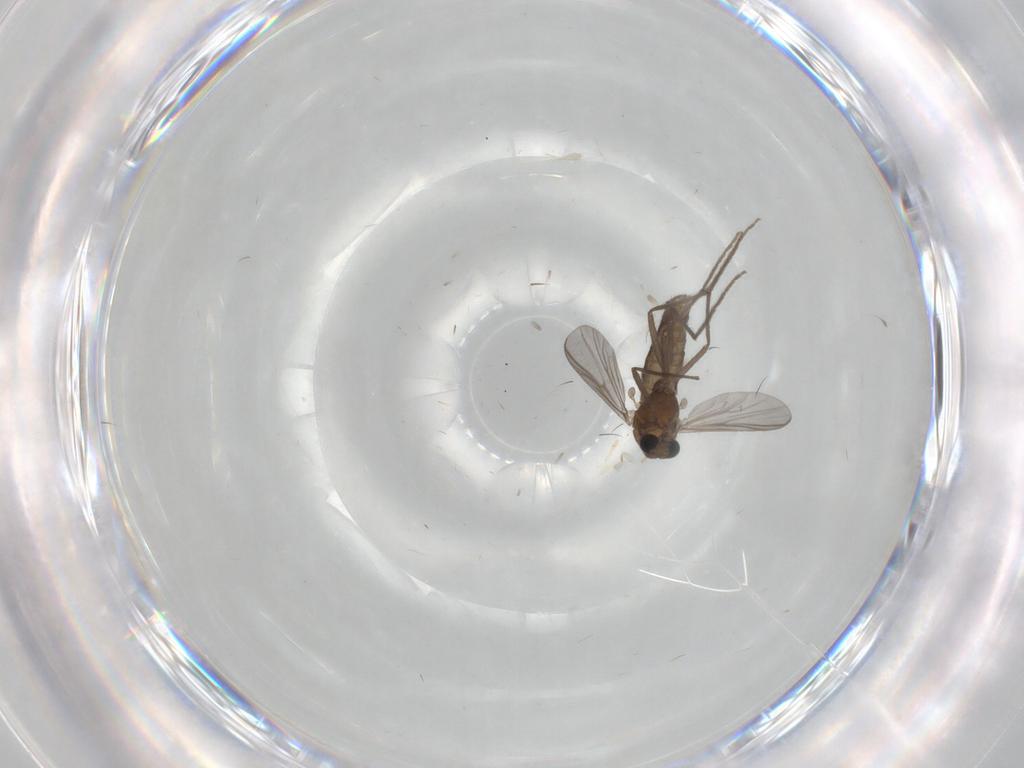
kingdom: Animalia
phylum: Arthropoda
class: Insecta
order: Diptera
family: Chironomidae
